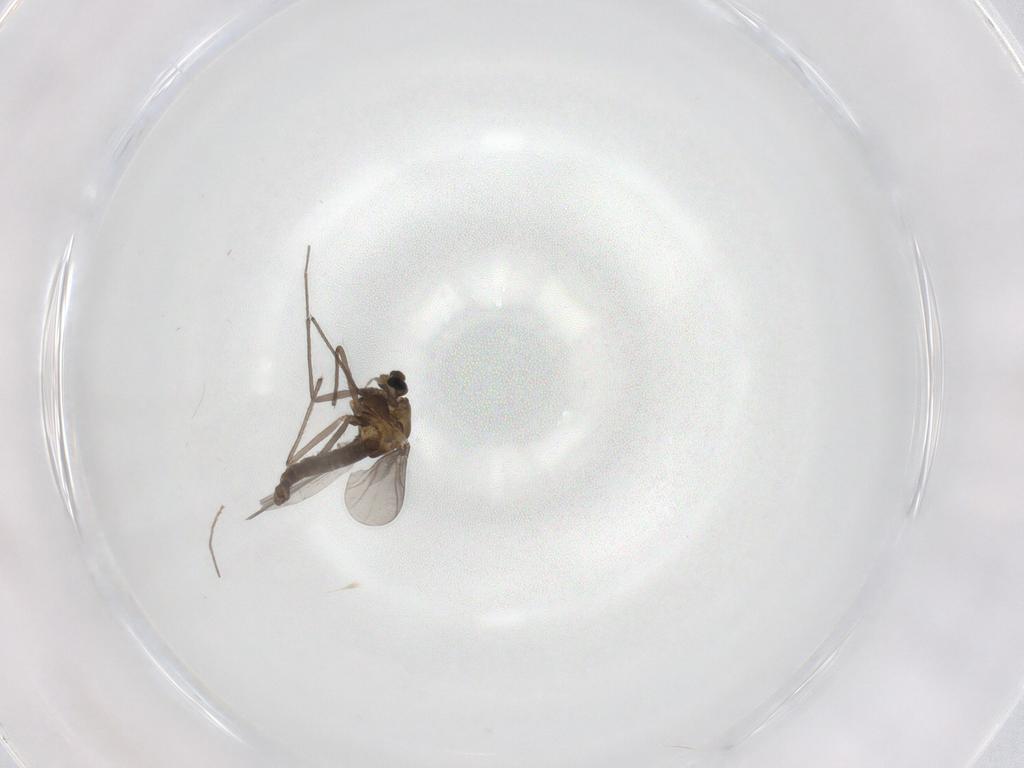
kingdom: Animalia
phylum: Arthropoda
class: Insecta
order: Diptera
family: Chironomidae
